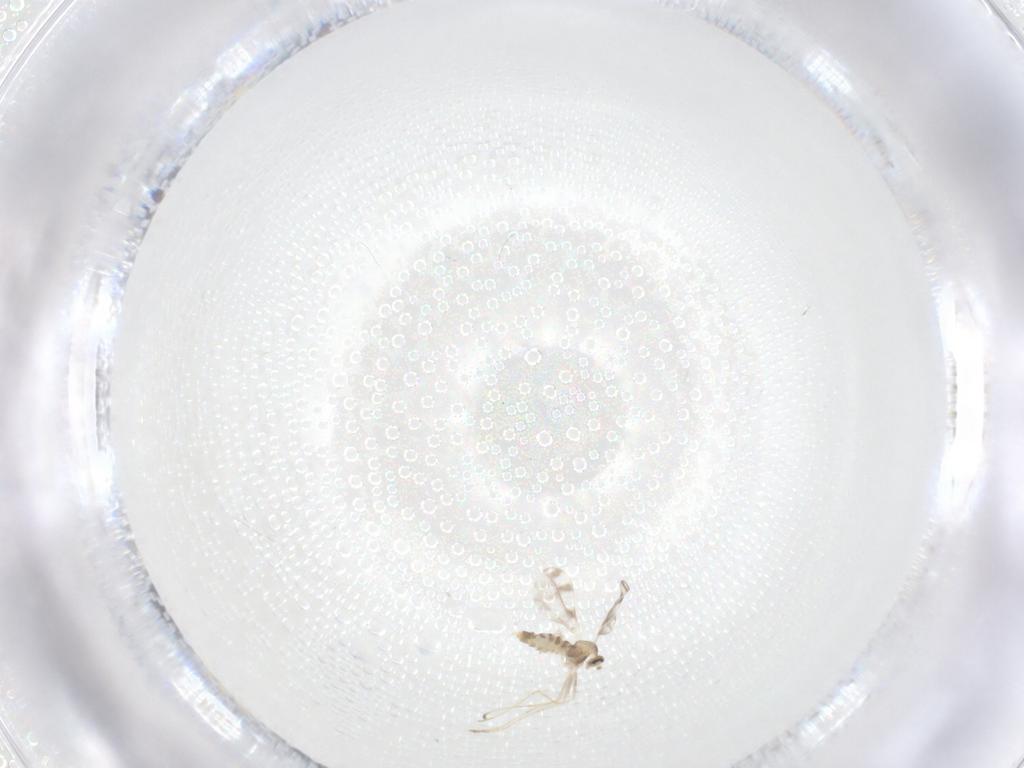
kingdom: Animalia
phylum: Arthropoda
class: Insecta
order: Diptera
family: Cecidomyiidae
